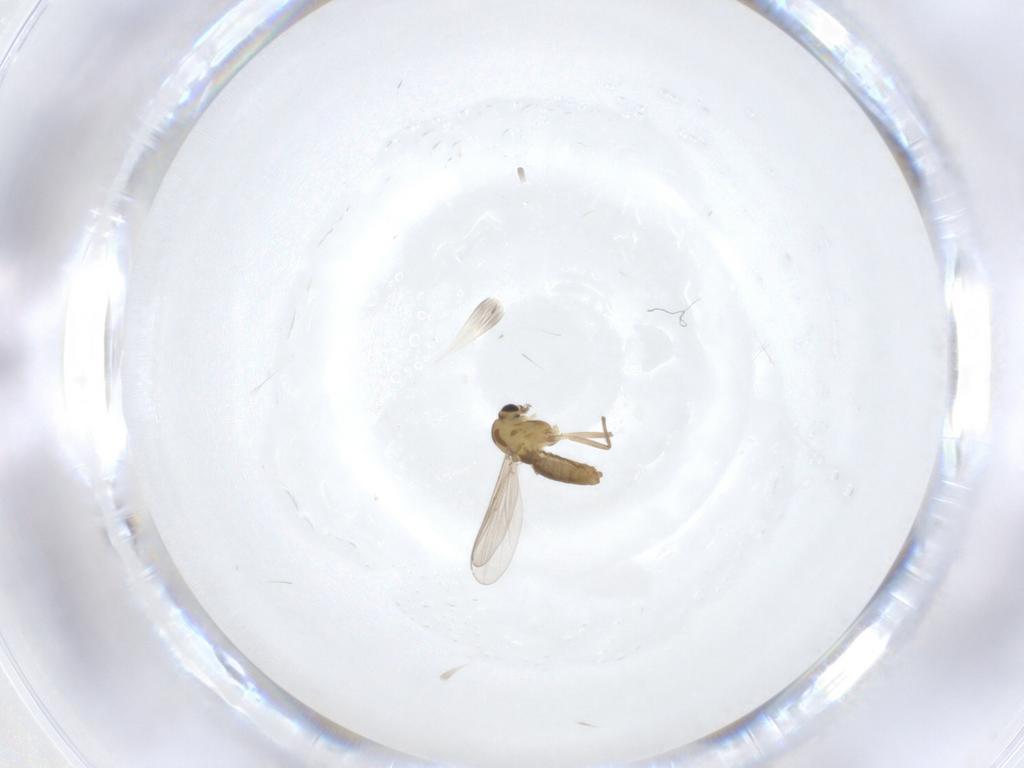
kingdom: Animalia
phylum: Arthropoda
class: Insecta
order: Diptera
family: Chironomidae
